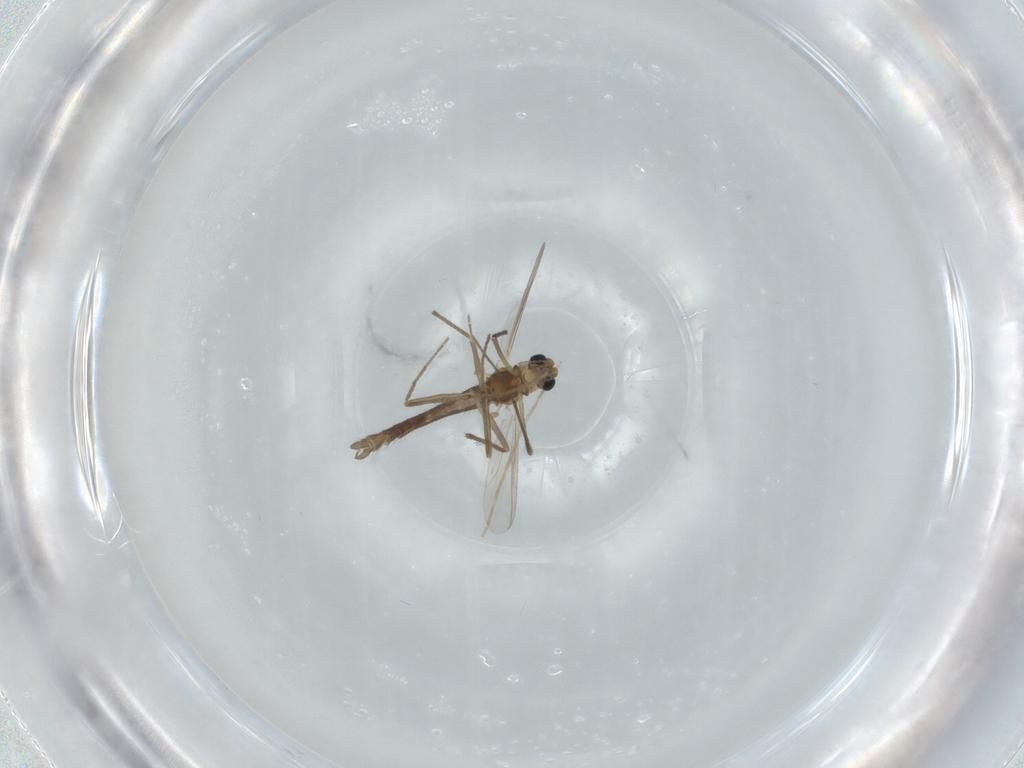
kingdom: Animalia
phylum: Arthropoda
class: Insecta
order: Diptera
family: Chironomidae
